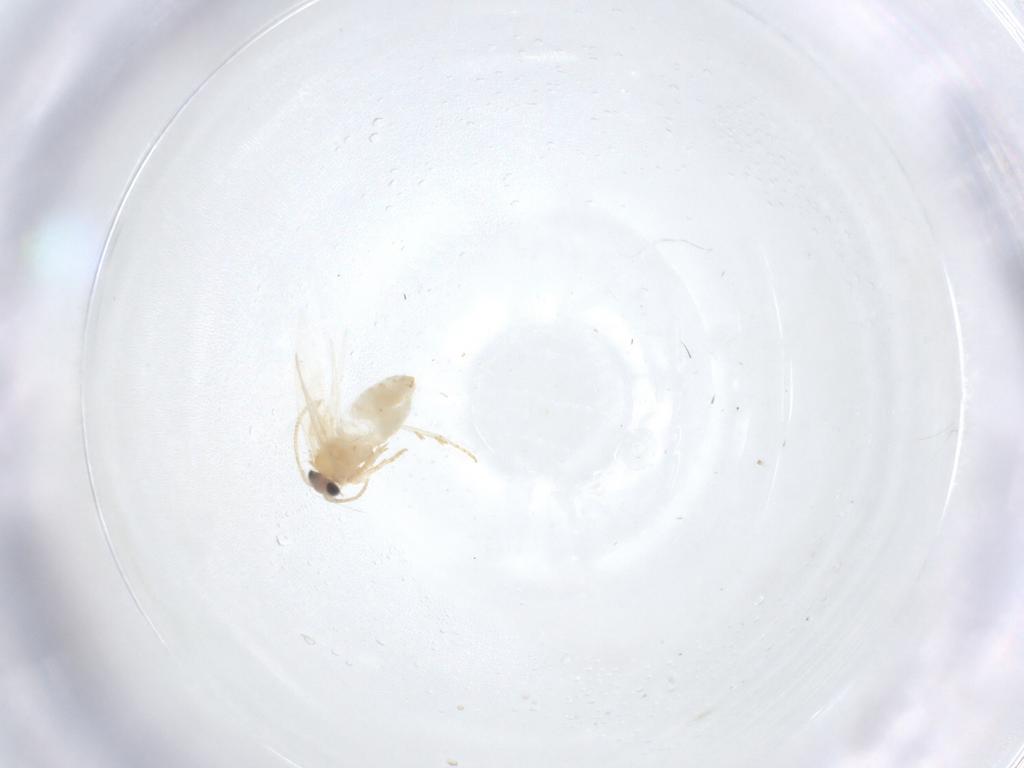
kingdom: Animalia
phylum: Arthropoda
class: Insecta
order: Lepidoptera
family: Nepticulidae
